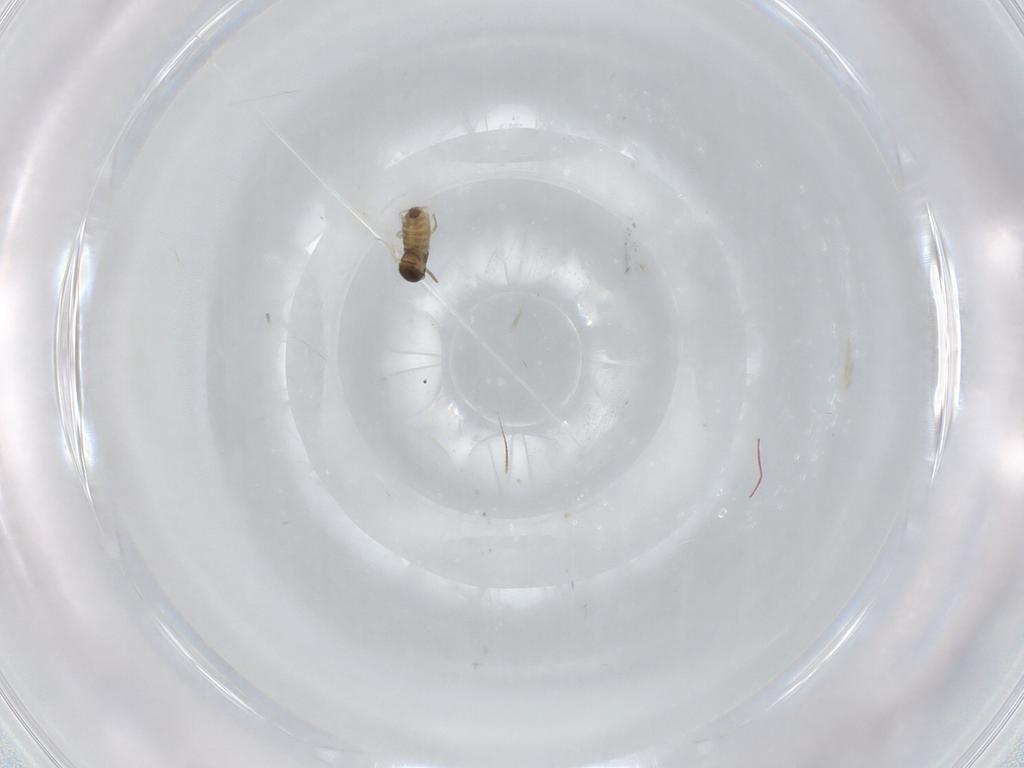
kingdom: Animalia
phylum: Arthropoda
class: Insecta
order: Diptera
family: Cecidomyiidae
